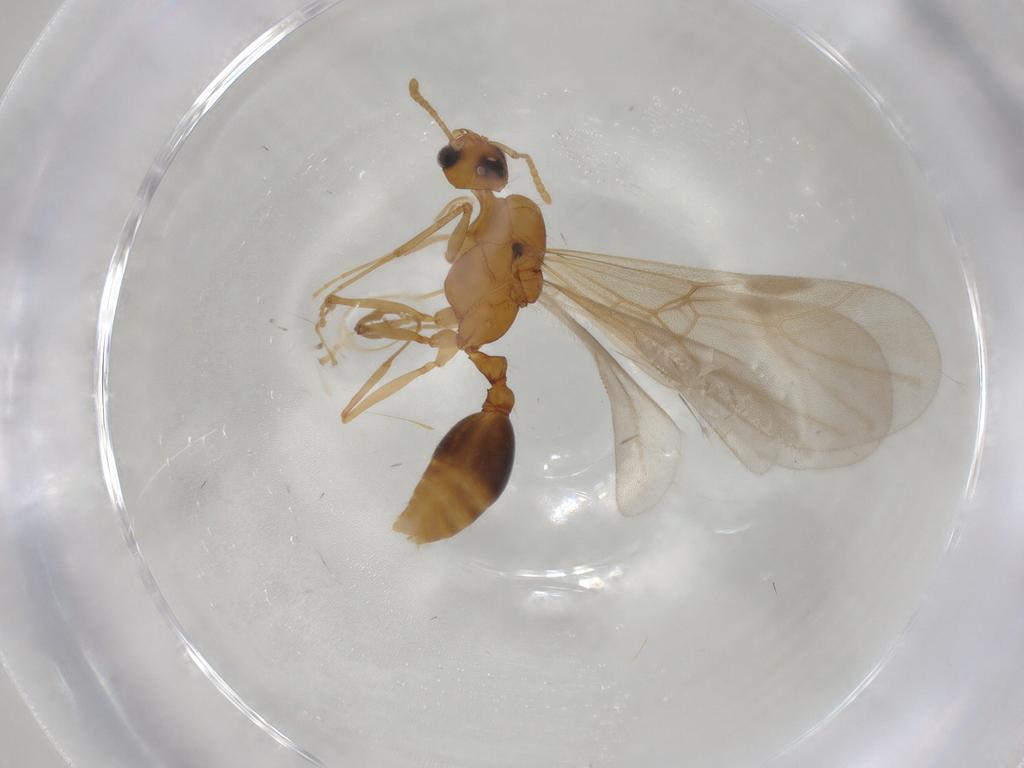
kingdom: Animalia
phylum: Arthropoda
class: Insecta
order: Hymenoptera
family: Formicidae
